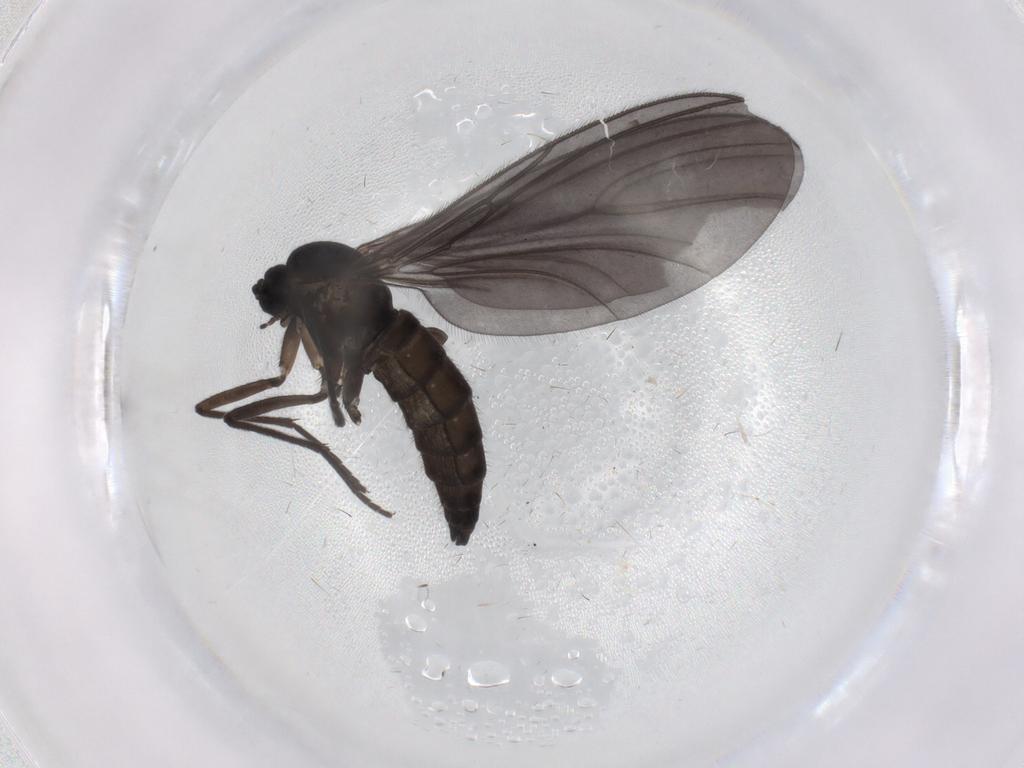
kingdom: Animalia
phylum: Arthropoda
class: Insecta
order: Diptera
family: Sciaridae
